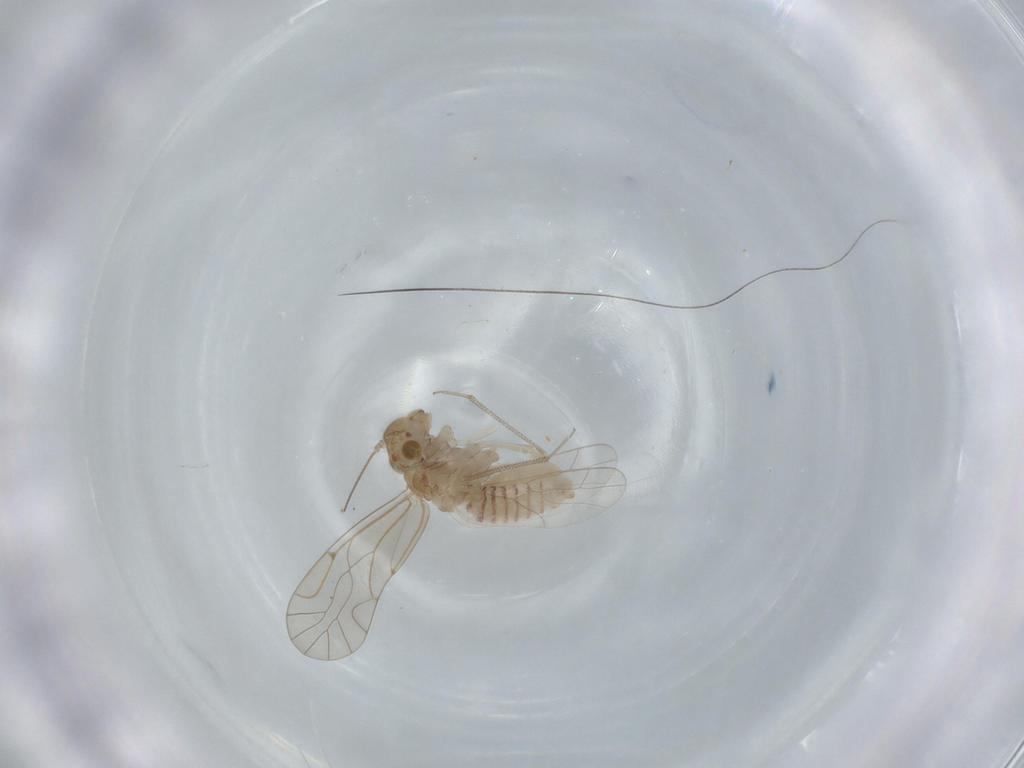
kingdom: Animalia
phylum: Arthropoda
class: Insecta
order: Psocodea
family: Lachesillidae
